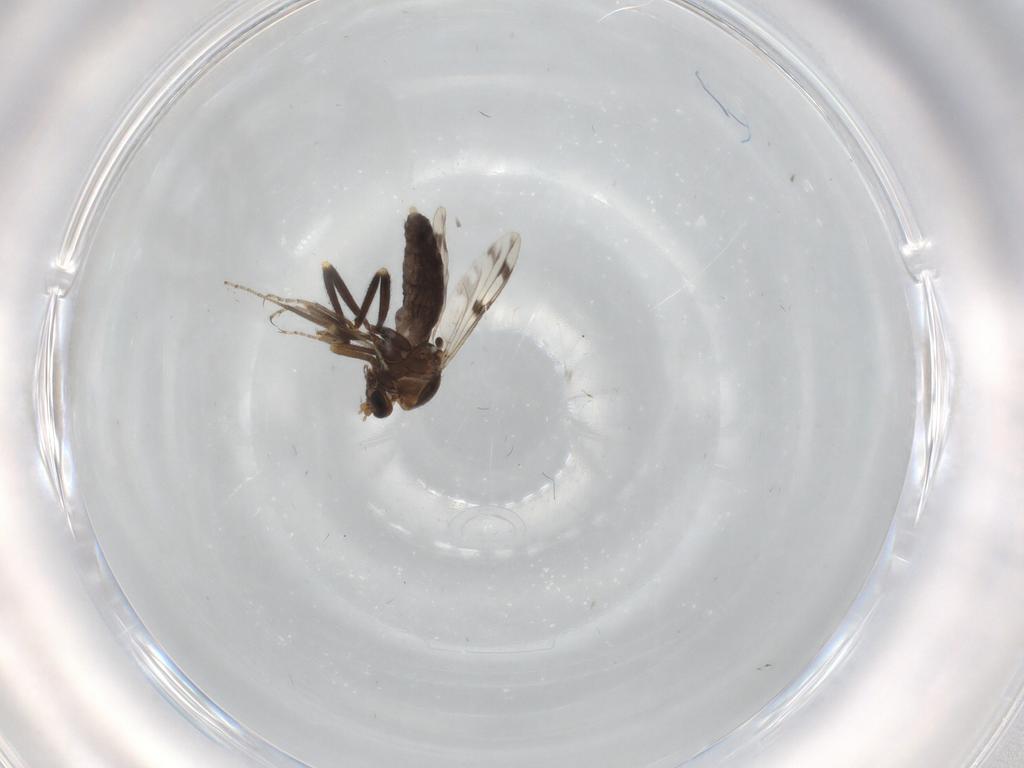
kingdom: Animalia
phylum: Arthropoda
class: Insecta
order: Diptera
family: Ceratopogonidae
